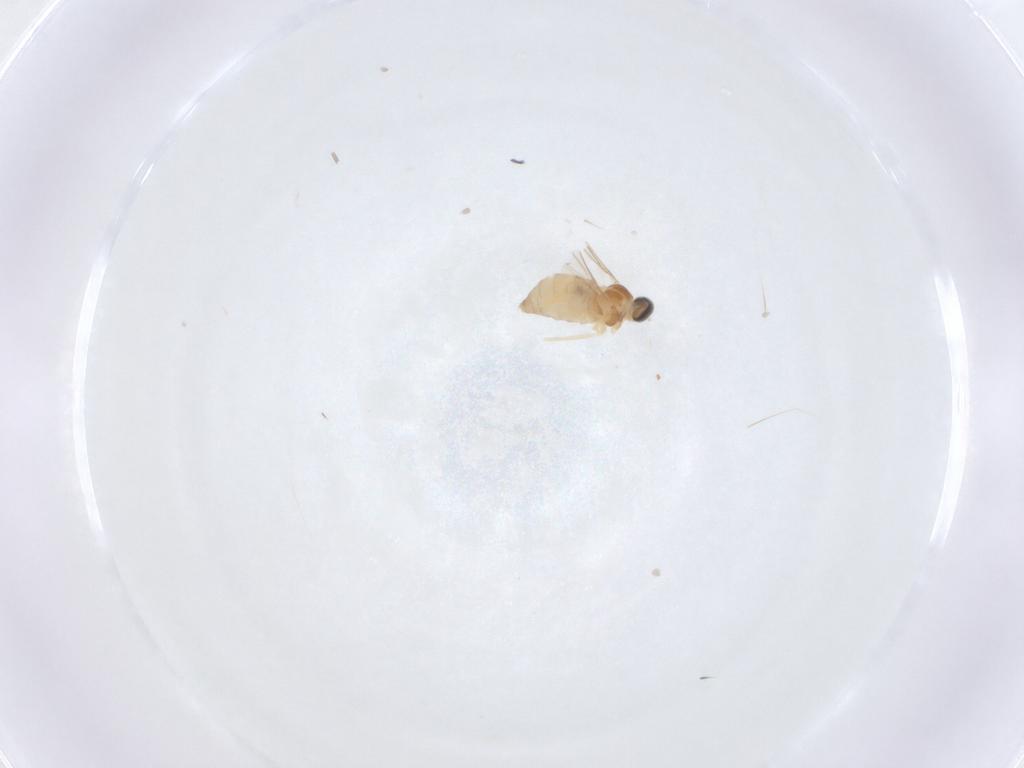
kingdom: Animalia
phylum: Arthropoda
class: Insecta
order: Diptera
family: Cecidomyiidae
